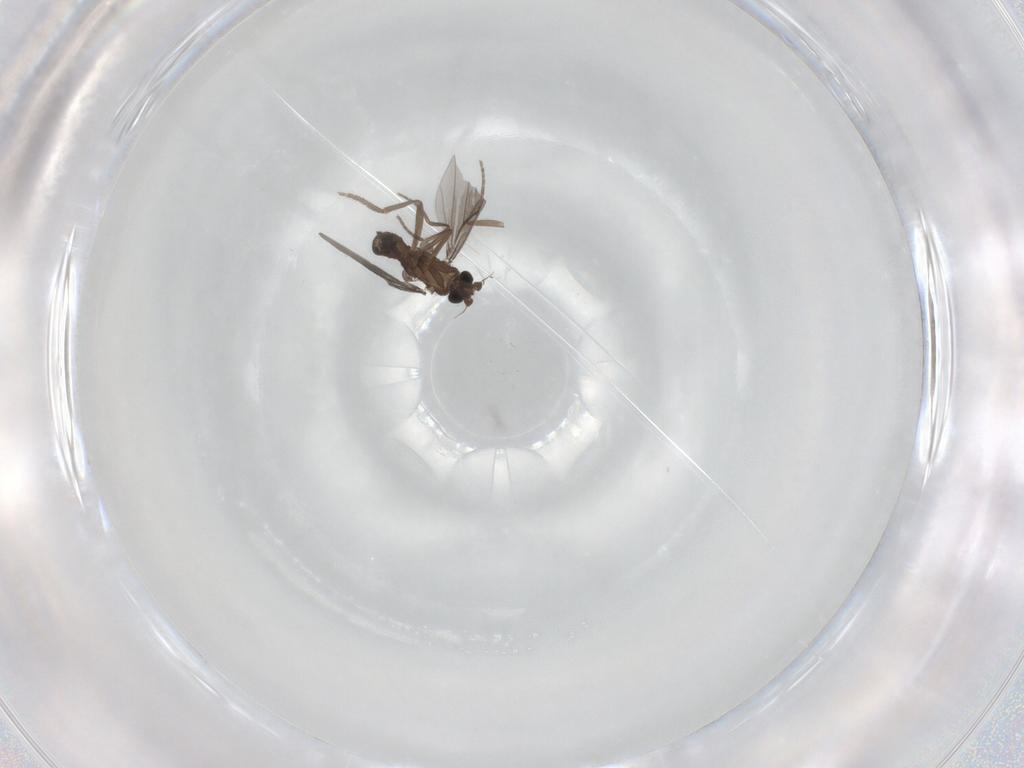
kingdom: Animalia
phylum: Arthropoda
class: Insecta
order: Diptera
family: Phoridae
